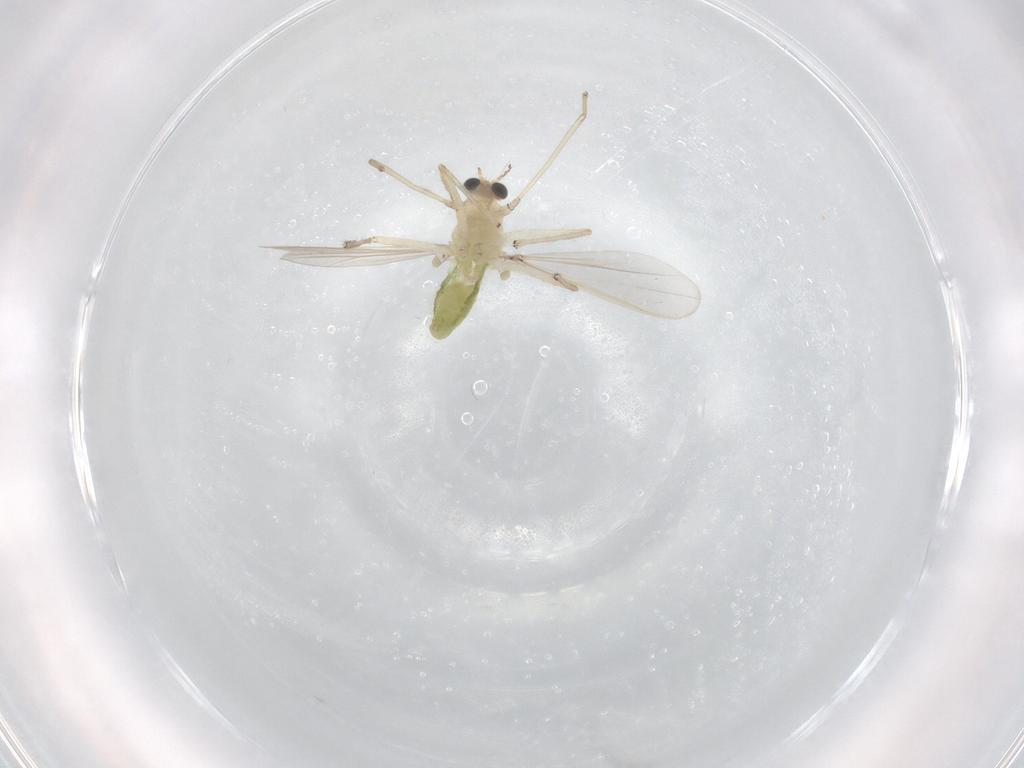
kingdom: Animalia
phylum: Arthropoda
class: Insecta
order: Diptera
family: Chironomidae
